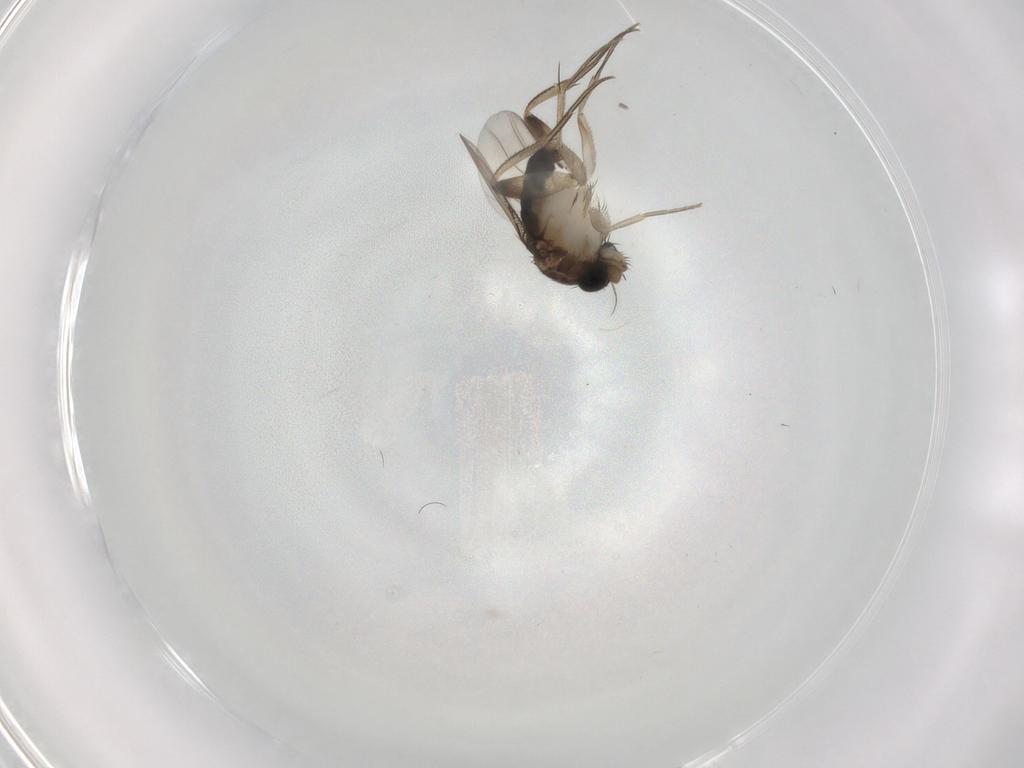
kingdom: Animalia
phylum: Arthropoda
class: Insecta
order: Diptera
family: Phoridae
